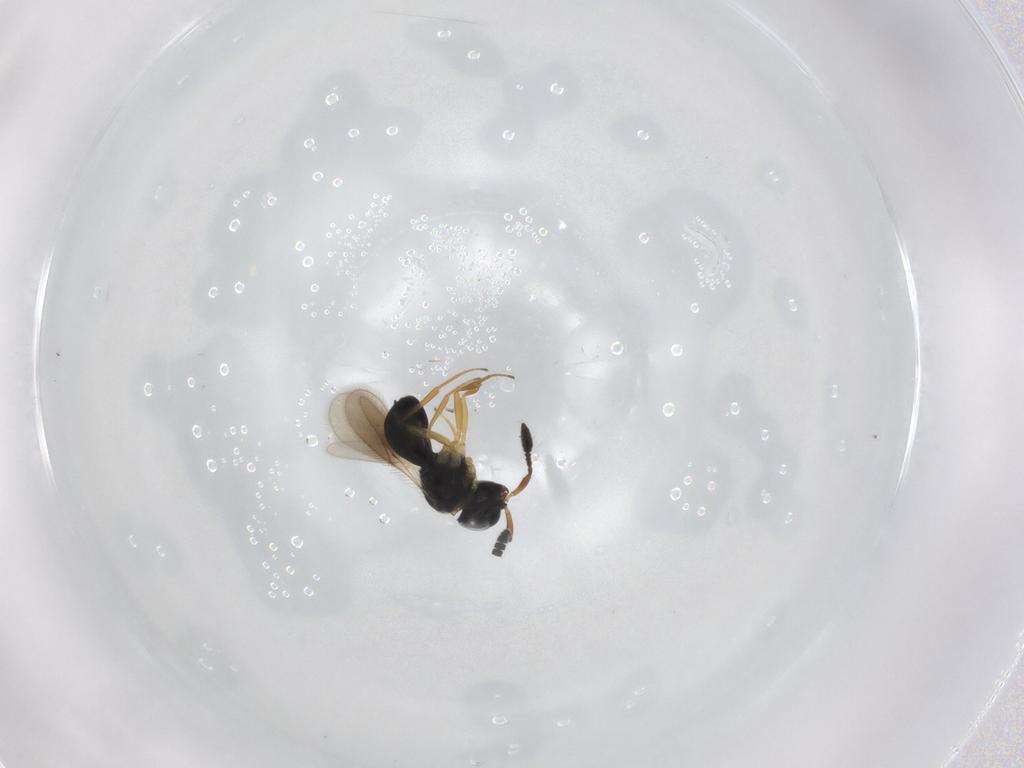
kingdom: Animalia
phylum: Arthropoda
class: Insecta
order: Hymenoptera
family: Scelionidae
